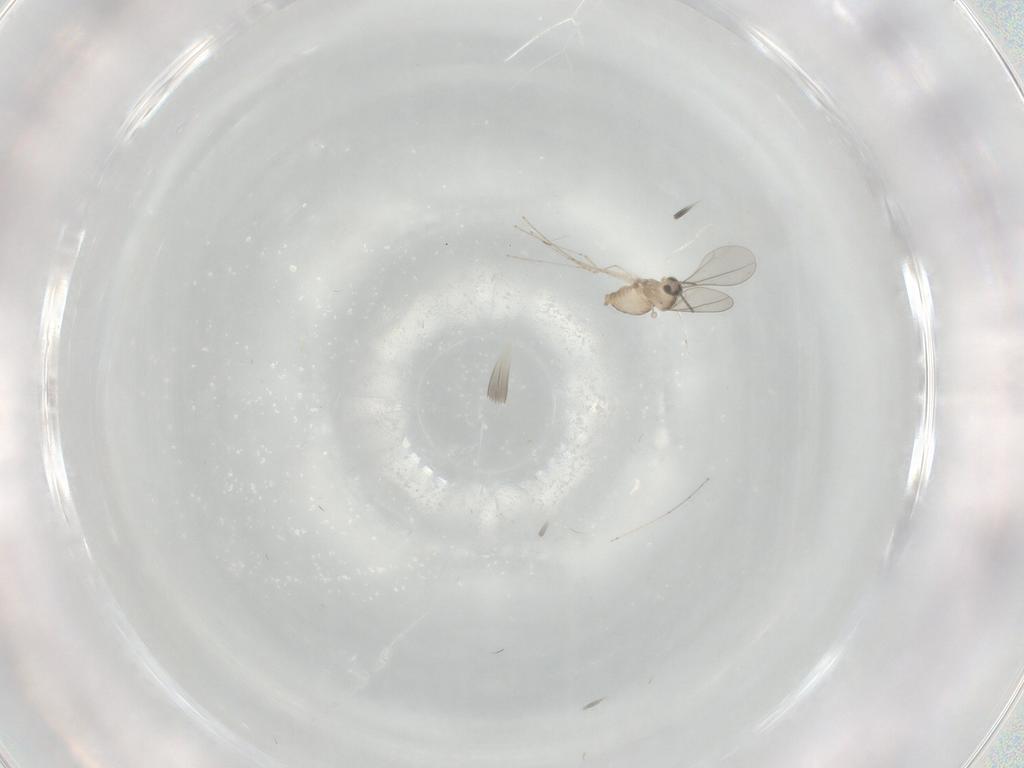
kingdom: Animalia
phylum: Arthropoda
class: Insecta
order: Diptera
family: Cecidomyiidae
